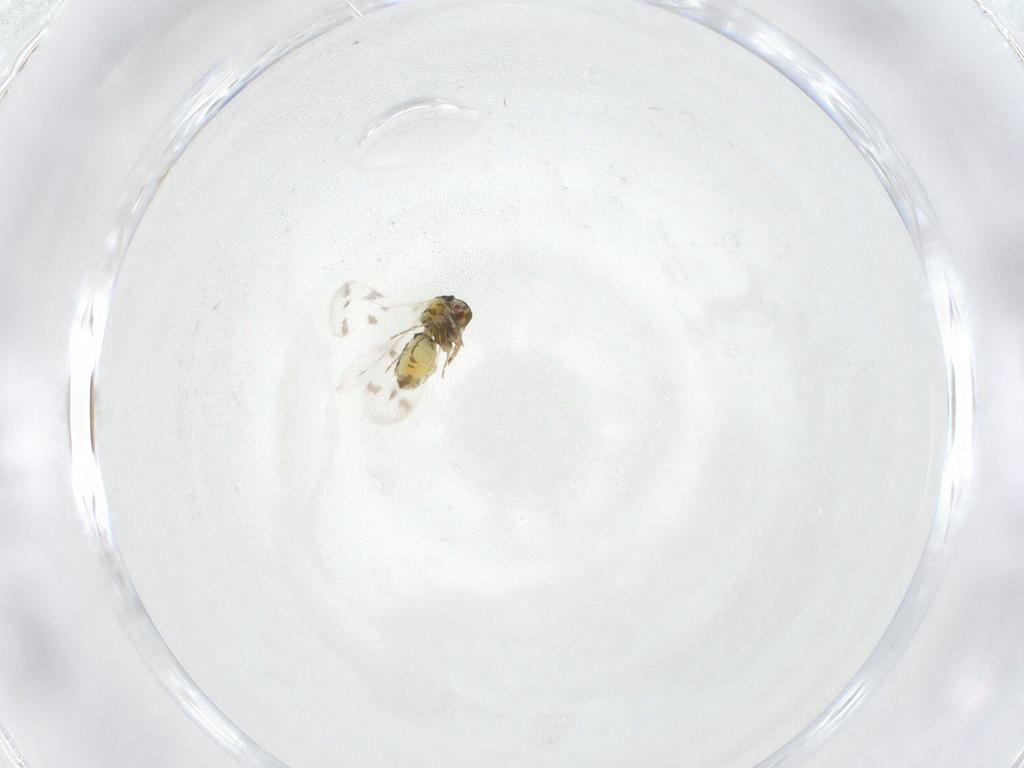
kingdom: Animalia
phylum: Arthropoda
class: Insecta
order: Hemiptera
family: Aleyrodidae
